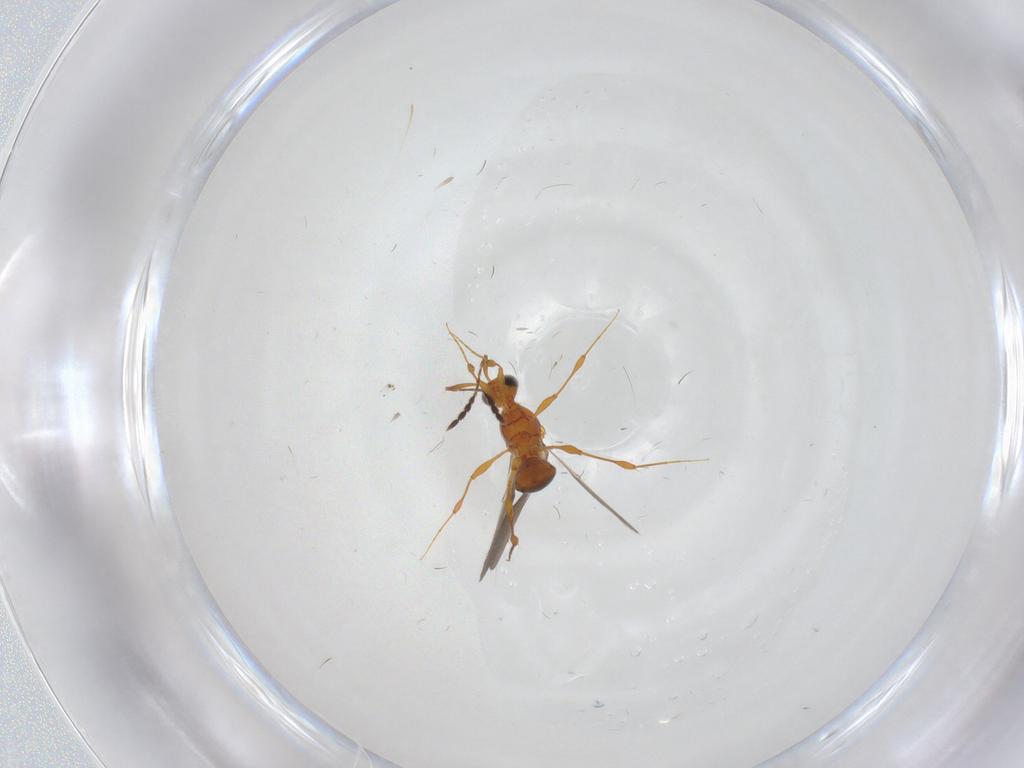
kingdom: Animalia
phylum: Arthropoda
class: Insecta
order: Hymenoptera
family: Platygastridae
